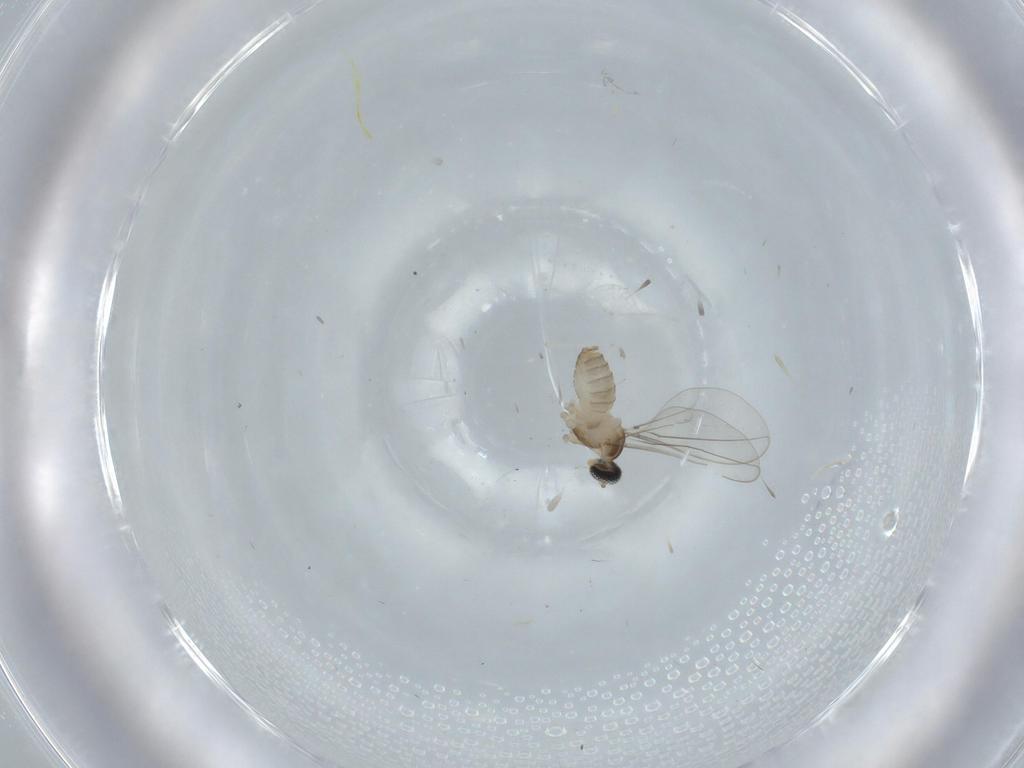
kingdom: Animalia
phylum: Arthropoda
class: Insecta
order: Diptera
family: Cecidomyiidae
